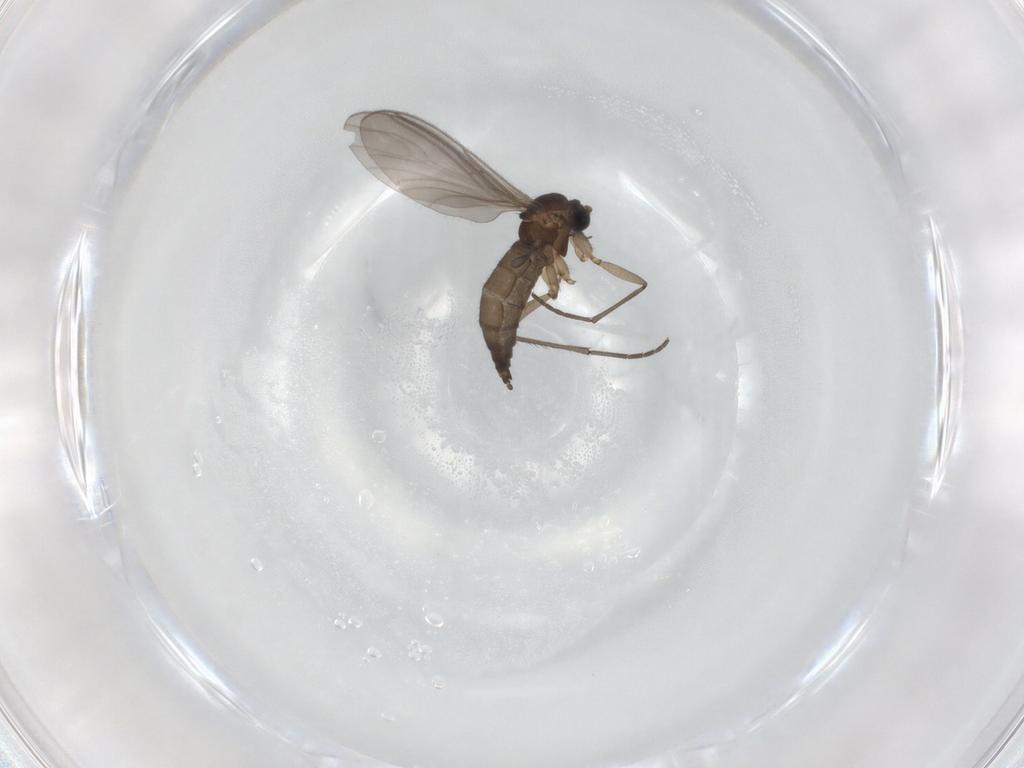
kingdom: Animalia
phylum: Arthropoda
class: Insecta
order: Diptera
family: Sciaridae
